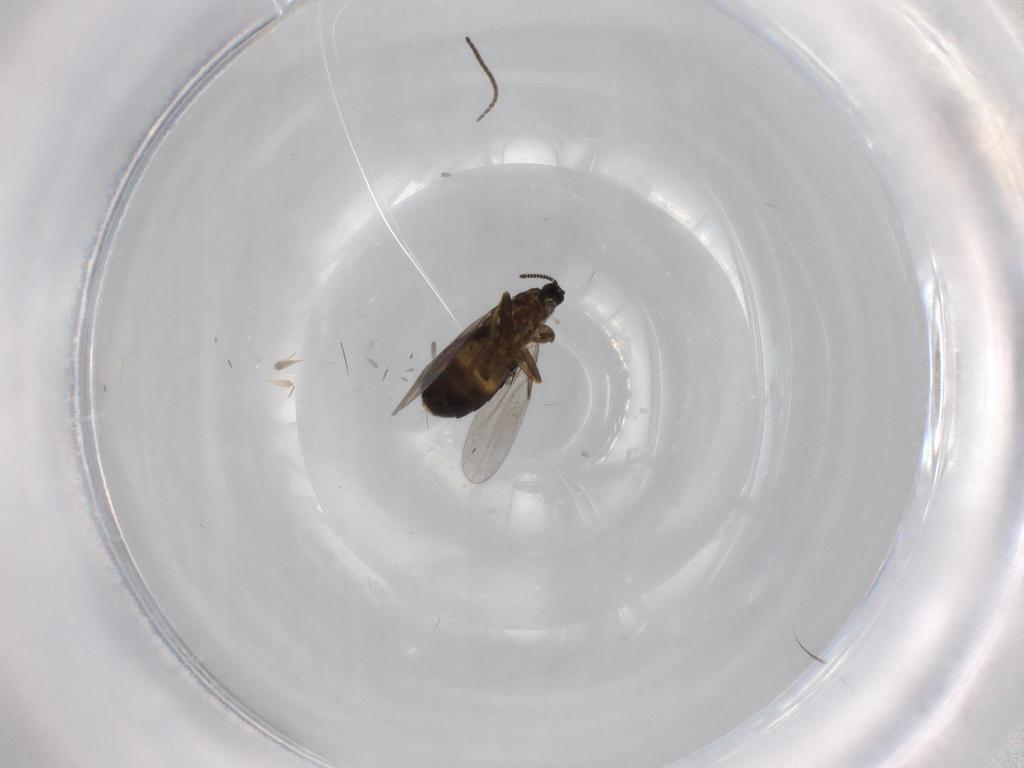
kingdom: Animalia
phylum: Arthropoda
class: Insecta
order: Diptera
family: Scatopsidae
